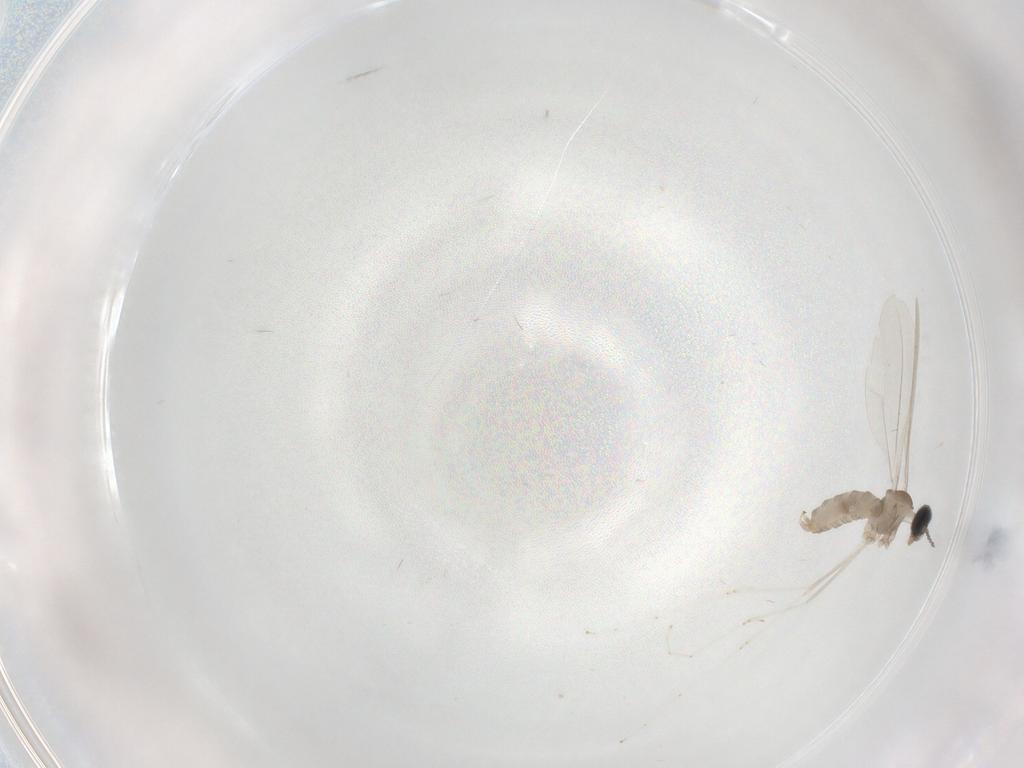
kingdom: Animalia
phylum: Arthropoda
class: Insecta
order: Diptera
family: Cecidomyiidae
